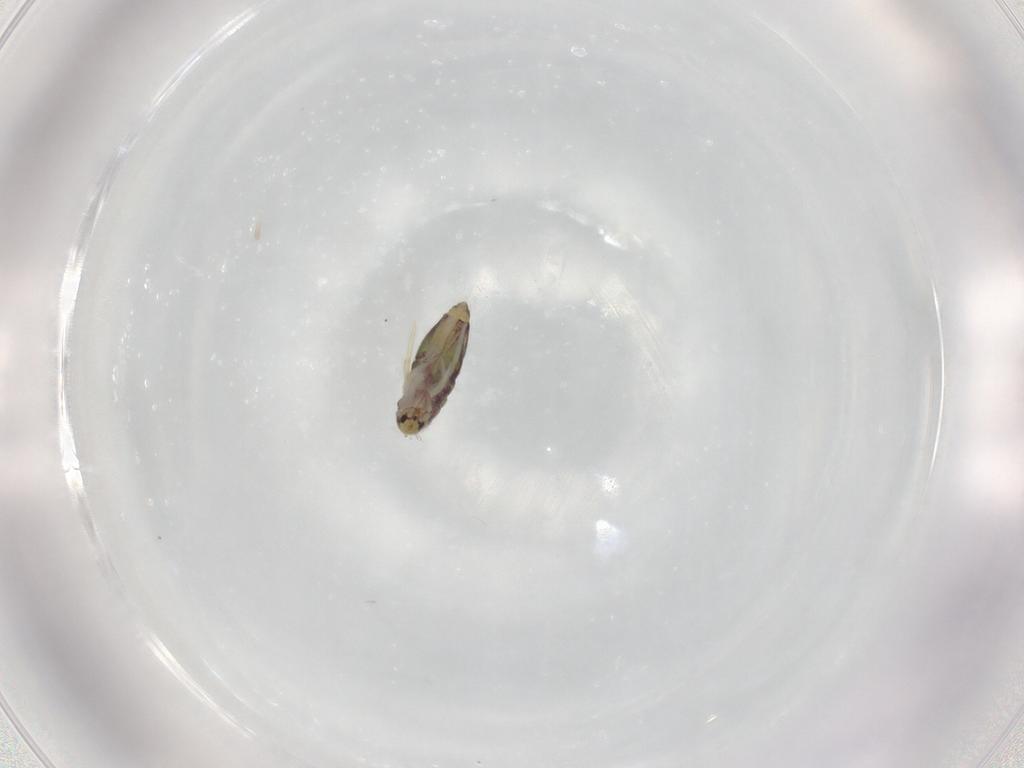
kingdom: Animalia
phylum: Arthropoda
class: Collembola
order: Entomobryomorpha
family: Entomobryidae
